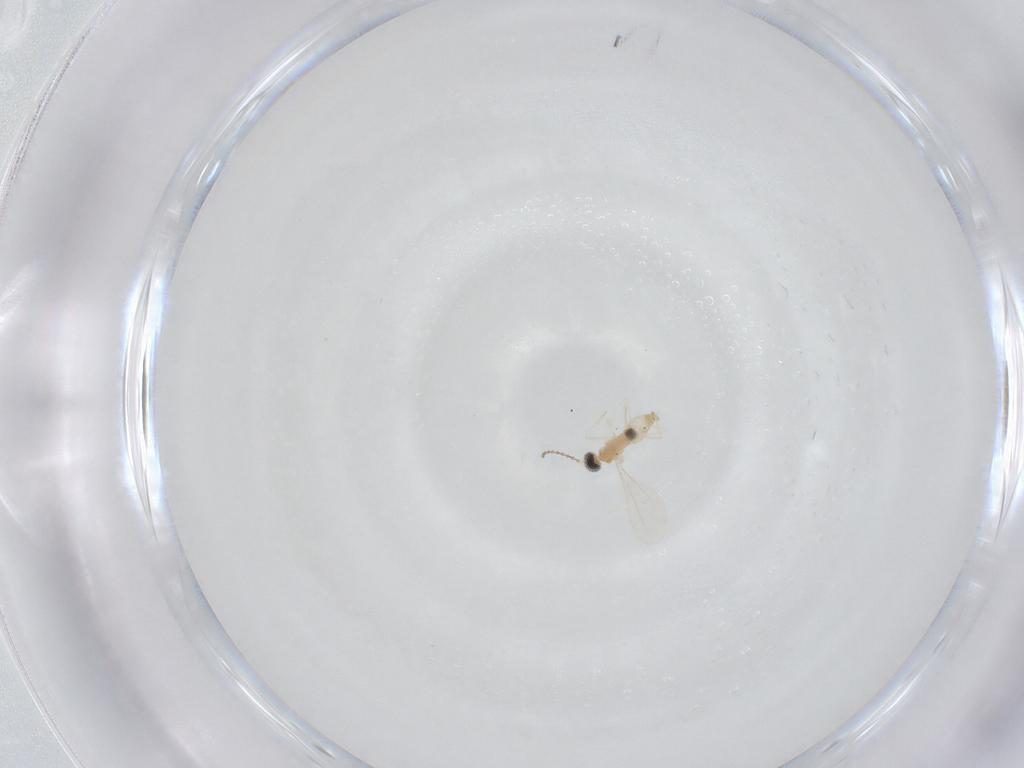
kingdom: Animalia
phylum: Arthropoda
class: Insecta
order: Diptera
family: Cecidomyiidae
